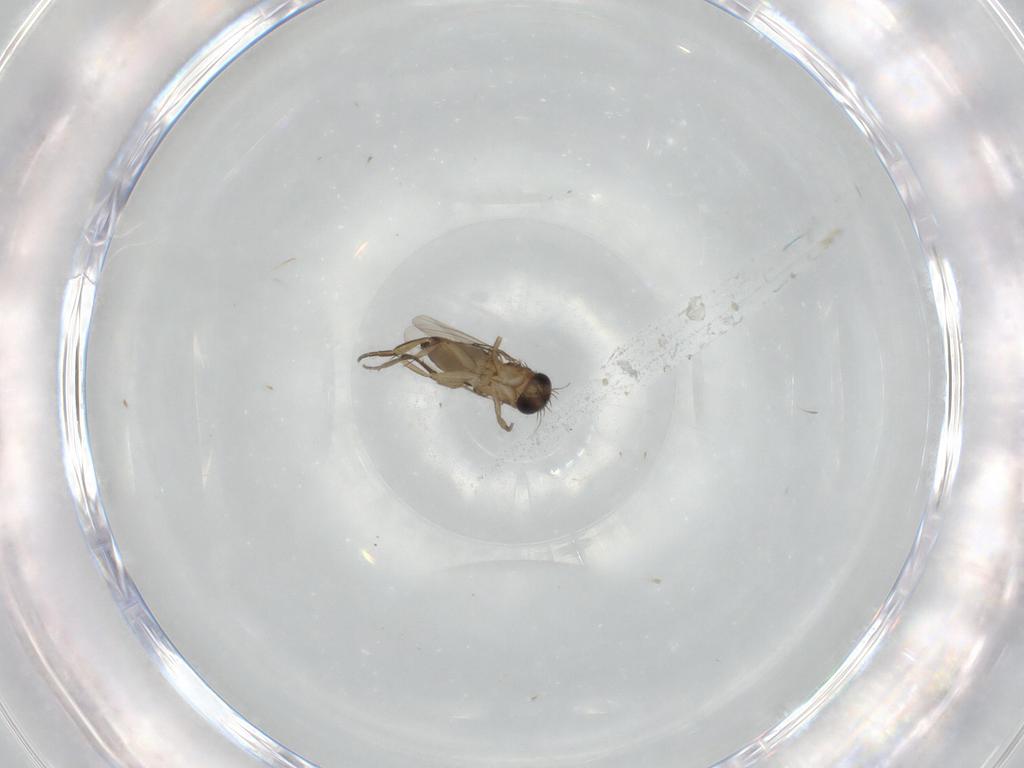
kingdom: Animalia
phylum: Arthropoda
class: Insecta
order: Diptera
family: Phoridae
